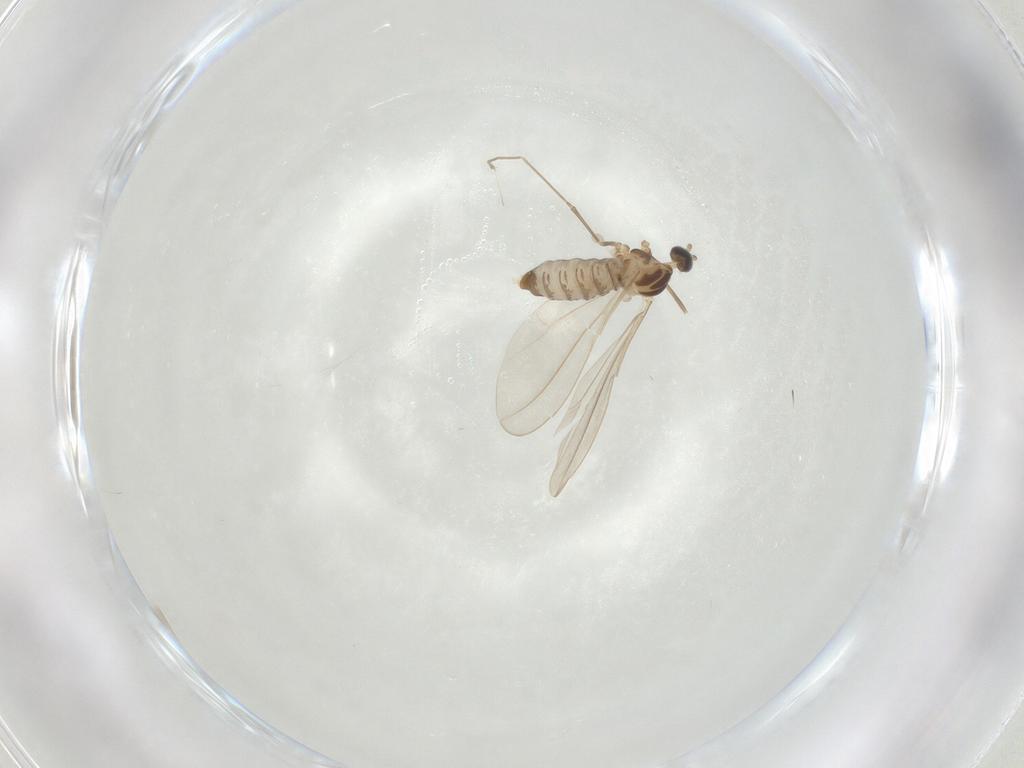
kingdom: Animalia
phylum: Arthropoda
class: Insecta
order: Diptera
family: Cecidomyiidae
